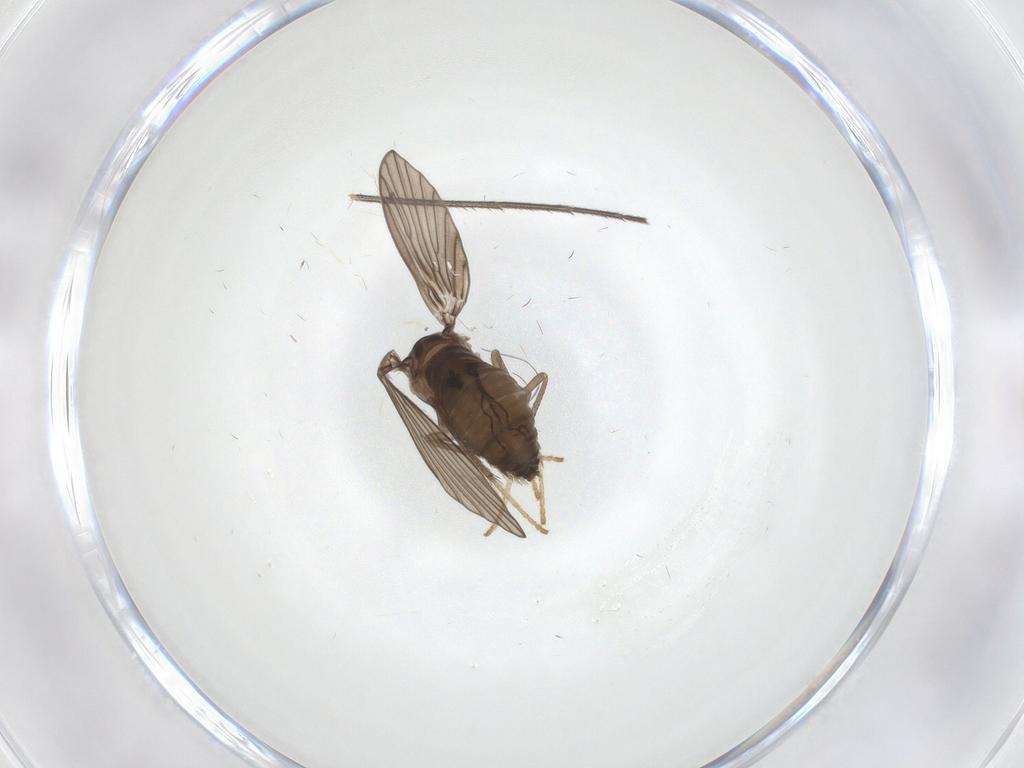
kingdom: Animalia
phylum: Arthropoda
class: Insecta
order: Diptera
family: Psychodidae
